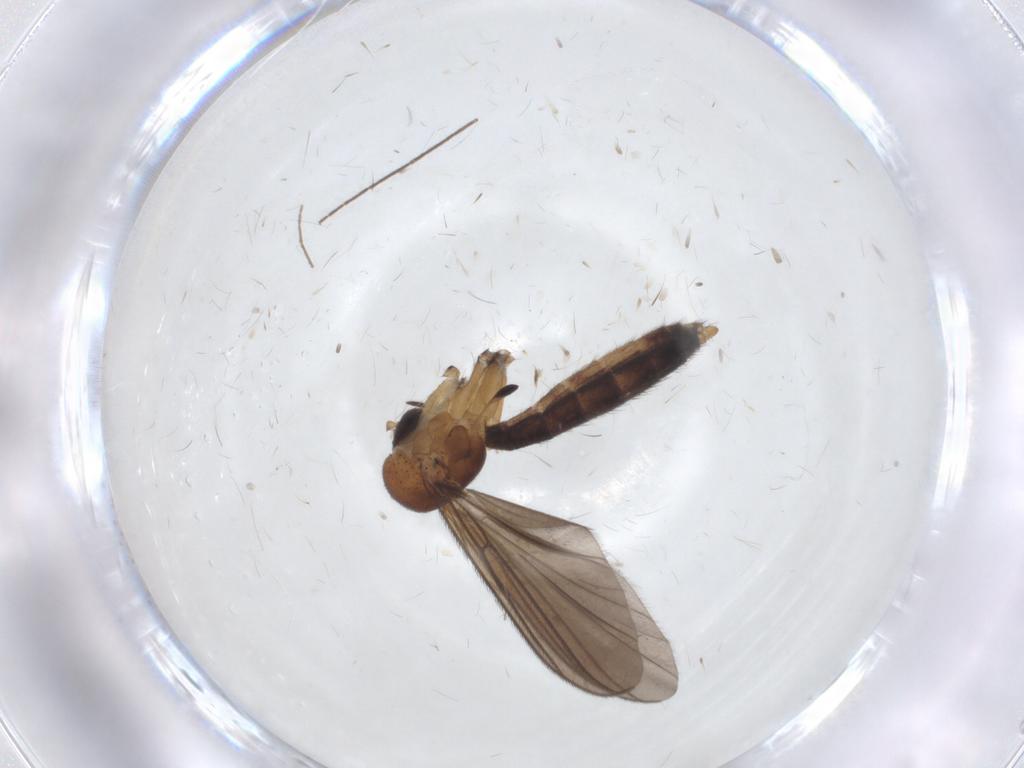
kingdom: Animalia
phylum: Arthropoda
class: Insecta
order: Diptera
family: Mycetophilidae
